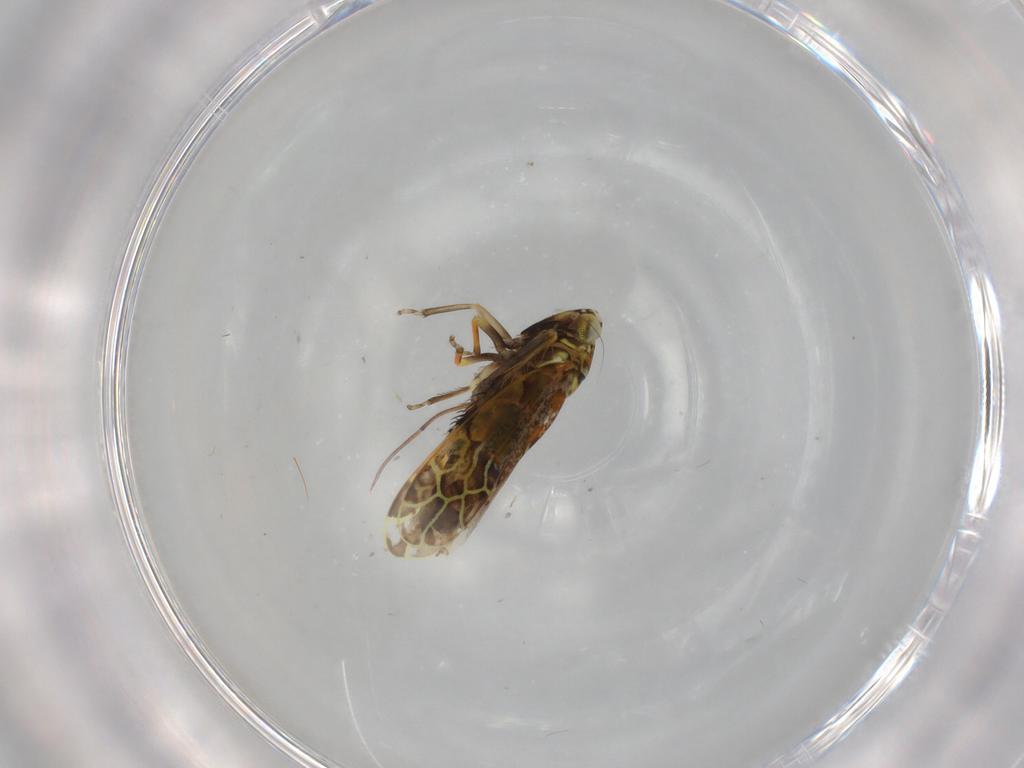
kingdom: Animalia
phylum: Arthropoda
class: Insecta
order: Hemiptera
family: Cicadellidae
